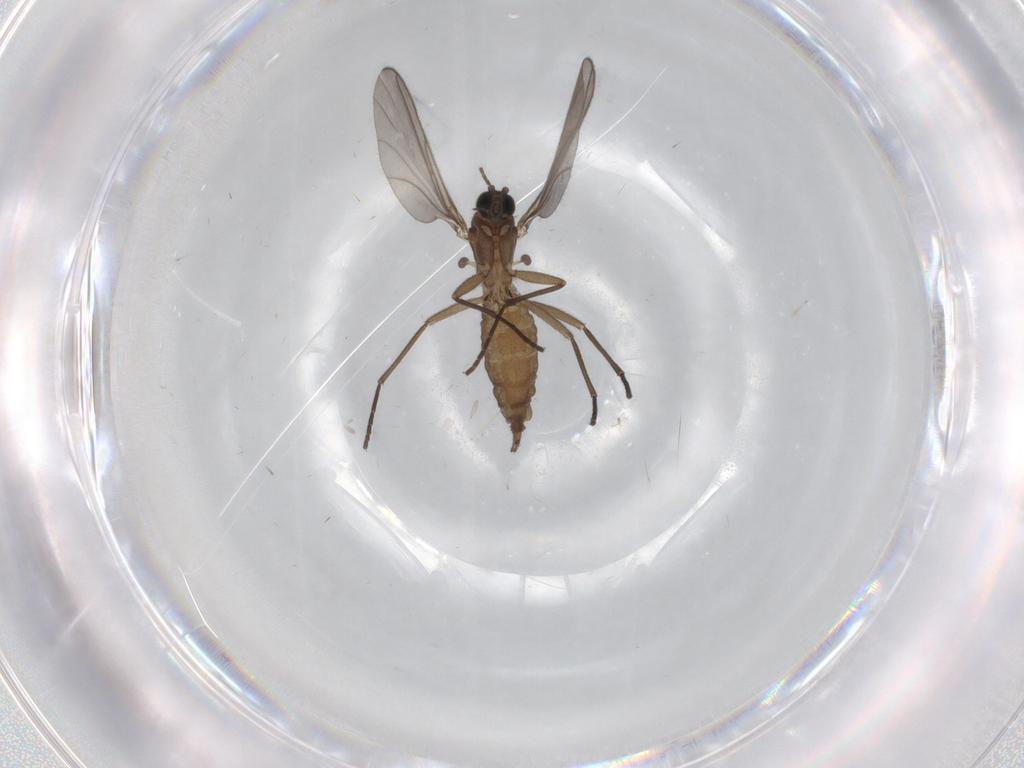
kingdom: Animalia
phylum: Arthropoda
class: Insecta
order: Diptera
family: Sciaridae
